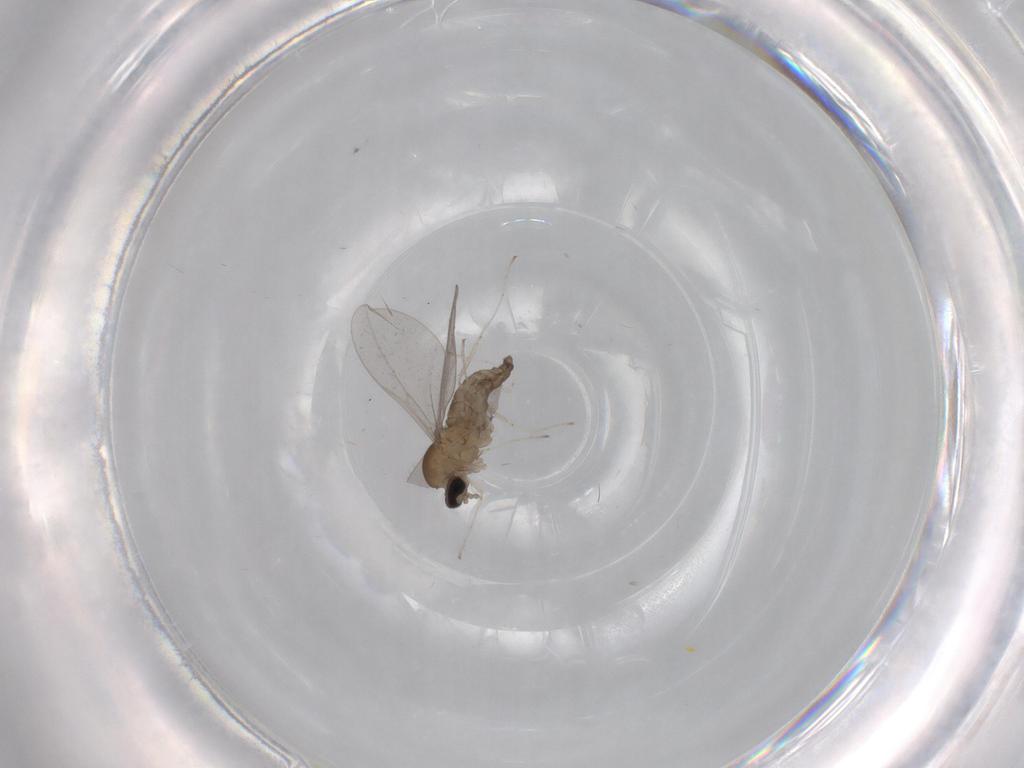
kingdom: Animalia
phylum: Arthropoda
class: Insecta
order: Diptera
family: Cecidomyiidae
